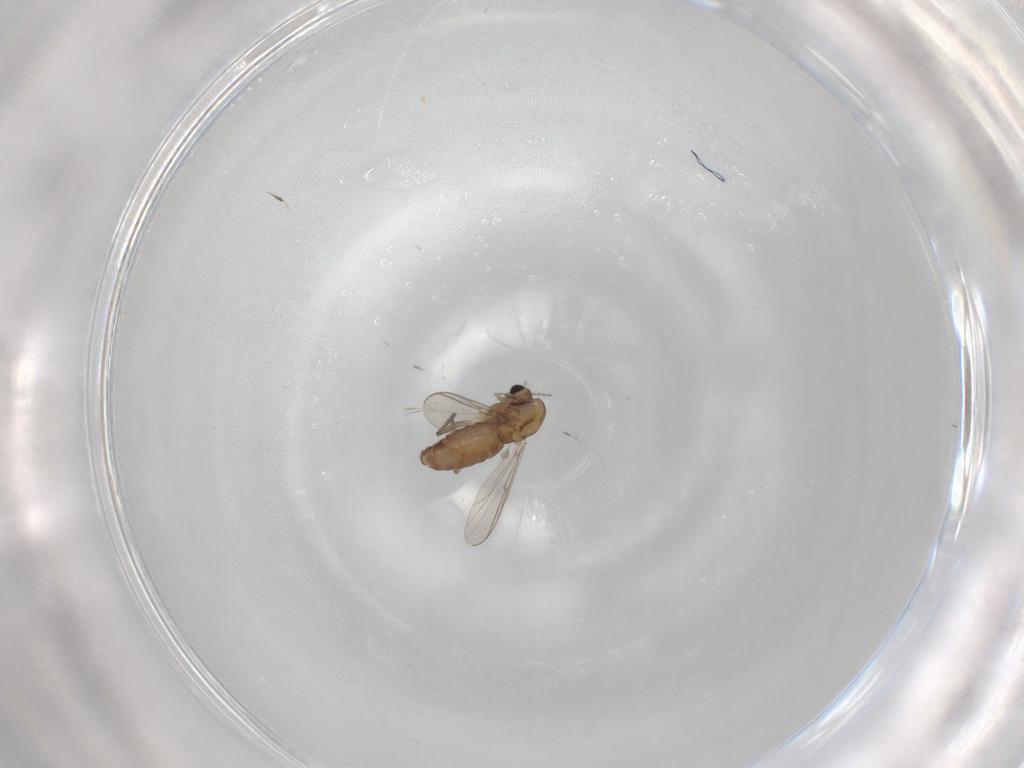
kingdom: Animalia
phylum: Arthropoda
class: Insecta
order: Diptera
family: Chironomidae
